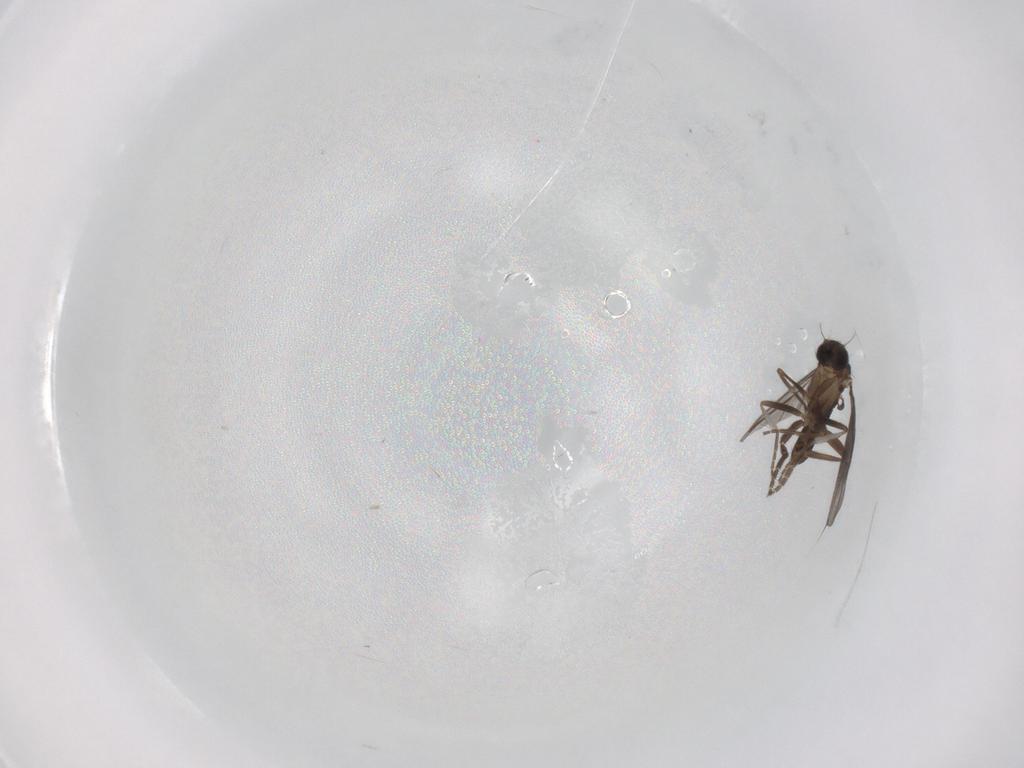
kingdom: Animalia
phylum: Arthropoda
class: Insecta
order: Diptera
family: Cecidomyiidae
